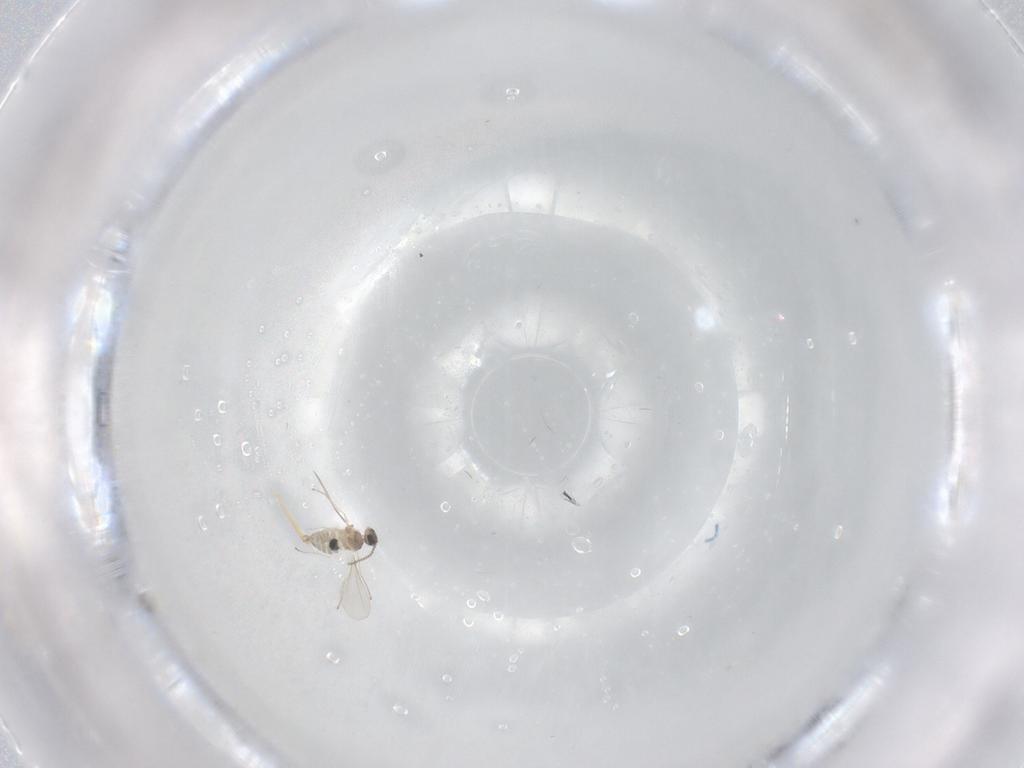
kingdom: Animalia
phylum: Arthropoda
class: Insecta
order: Diptera
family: Cecidomyiidae
